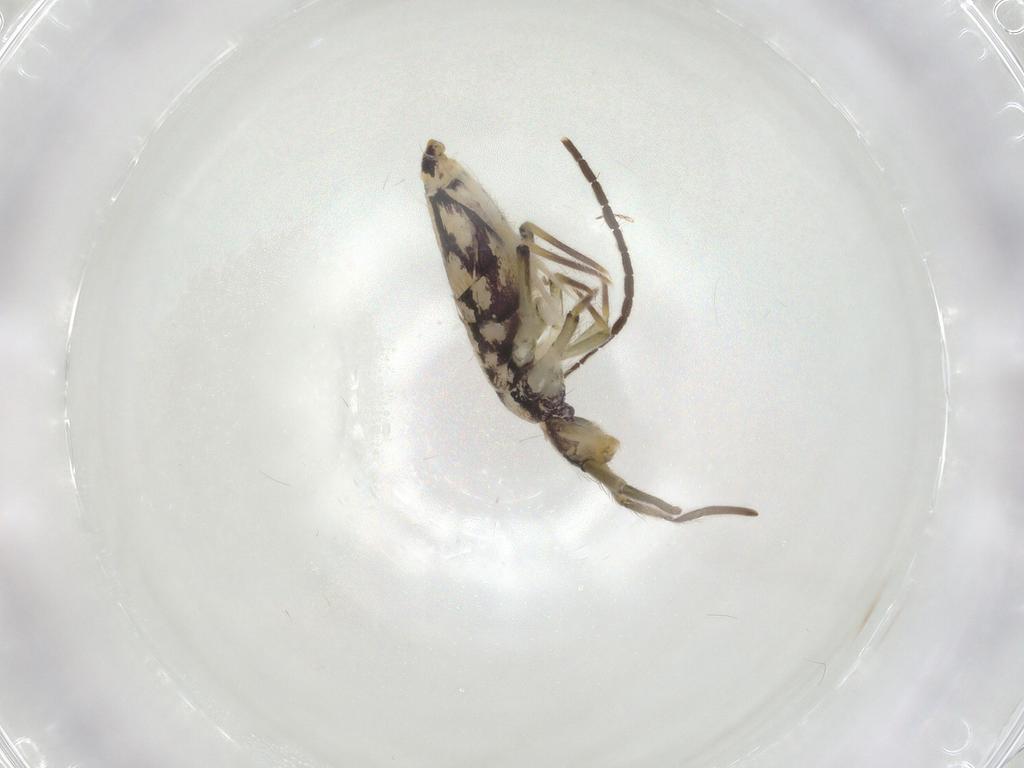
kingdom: Animalia
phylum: Arthropoda
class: Collembola
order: Entomobryomorpha
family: Entomobryidae
